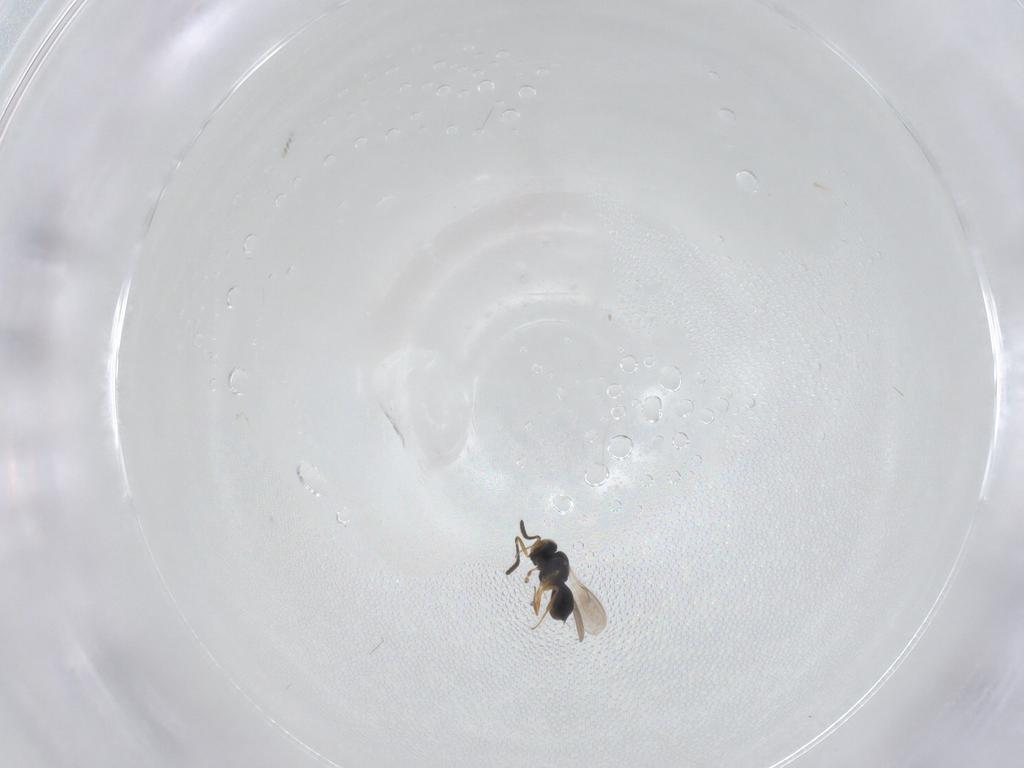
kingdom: Animalia
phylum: Arthropoda
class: Insecta
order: Hymenoptera
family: Scelionidae
